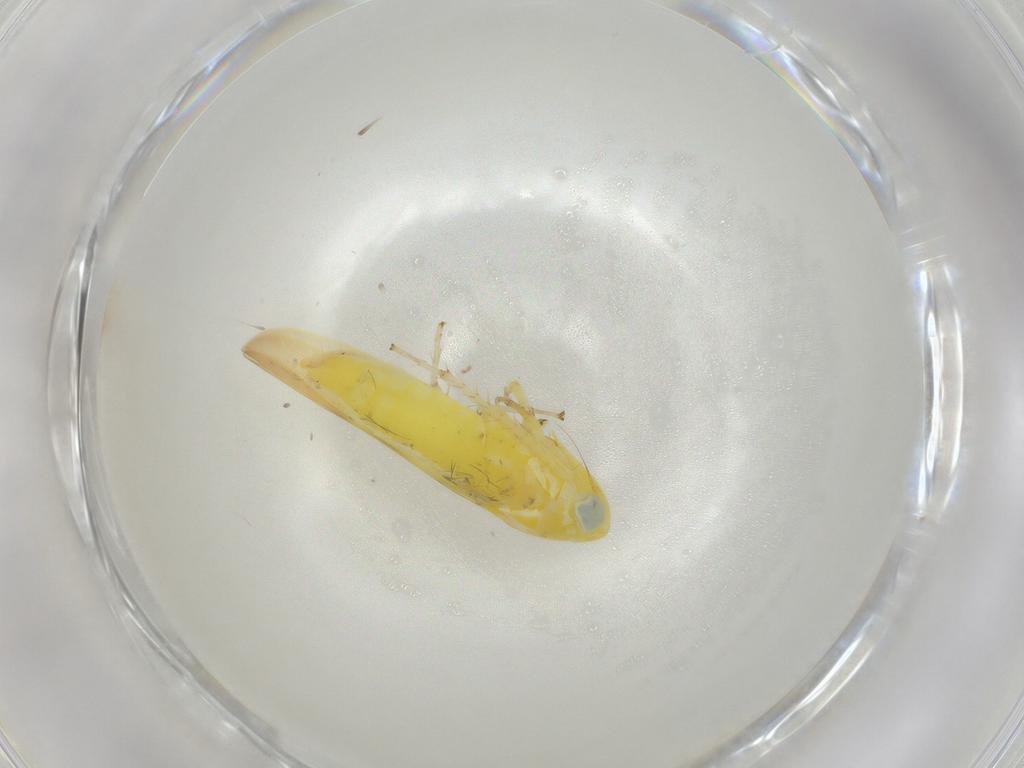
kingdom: Animalia
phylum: Arthropoda
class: Insecta
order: Hemiptera
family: Cicadellidae
